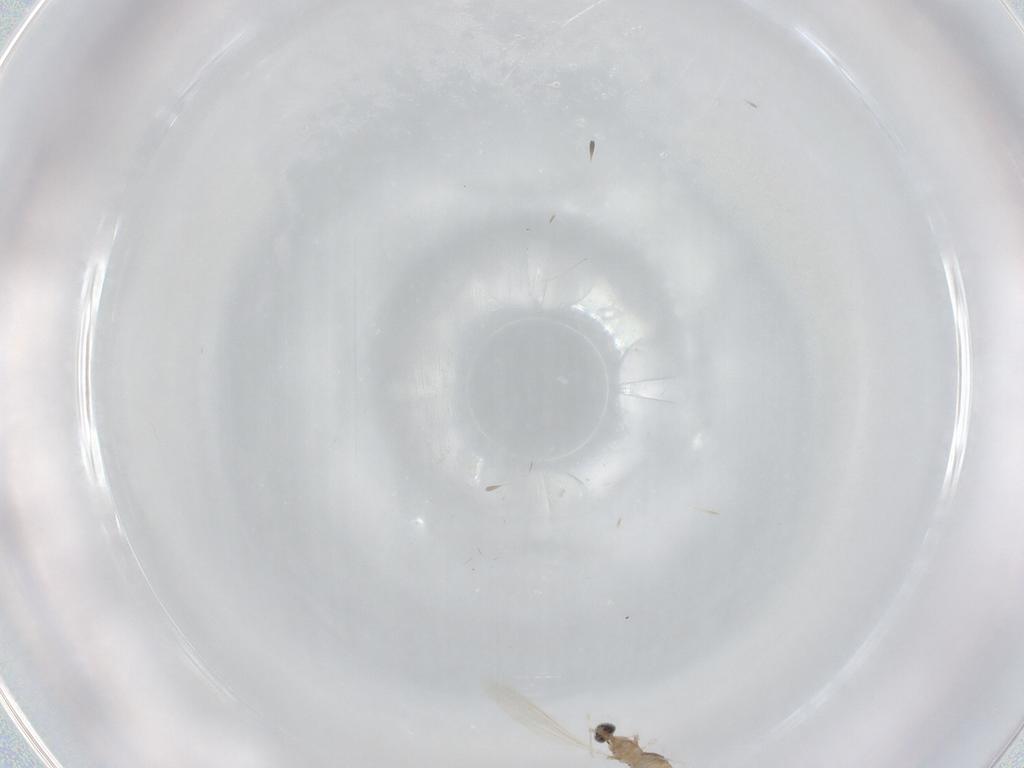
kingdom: Animalia
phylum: Arthropoda
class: Insecta
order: Diptera
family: Cecidomyiidae
